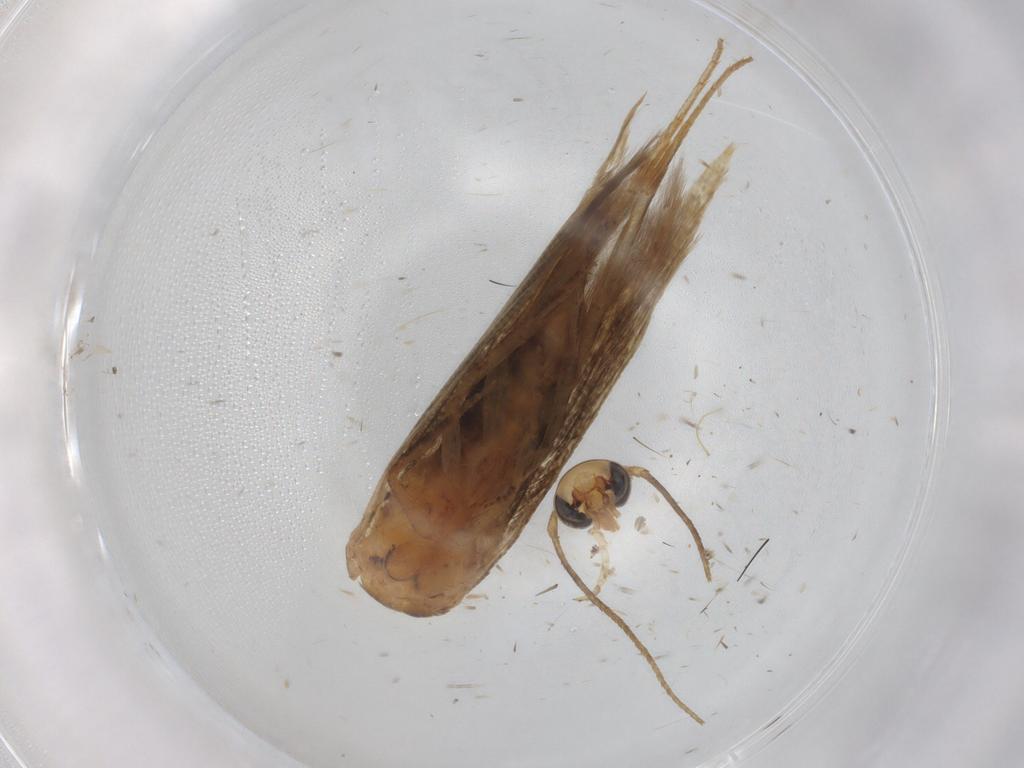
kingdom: Animalia
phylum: Arthropoda
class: Insecta
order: Lepidoptera
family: Cosmopterigidae
